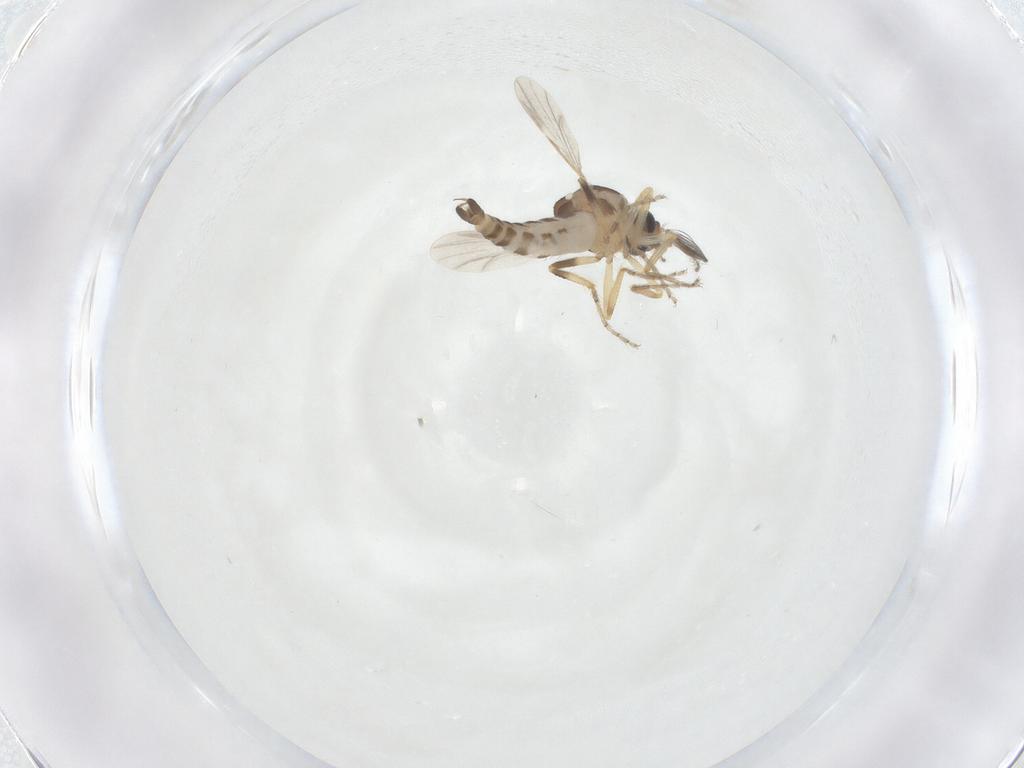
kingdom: Animalia
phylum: Arthropoda
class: Insecta
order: Diptera
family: Ceratopogonidae
